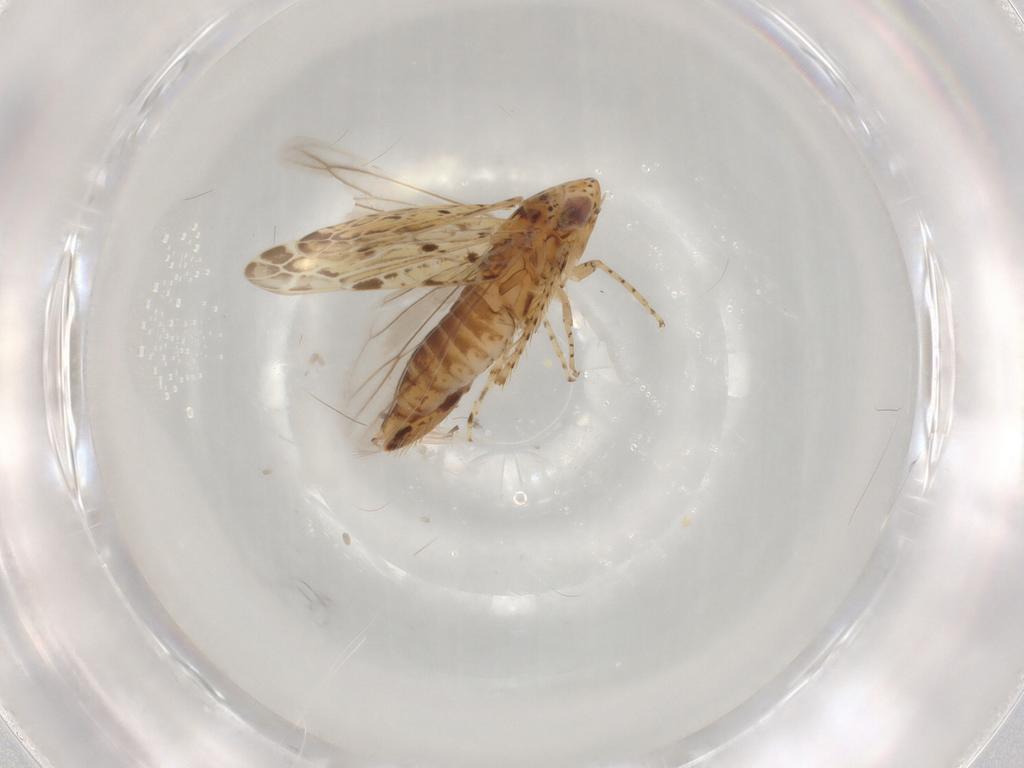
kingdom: Animalia
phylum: Arthropoda
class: Insecta
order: Hemiptera
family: Cicadellidae
